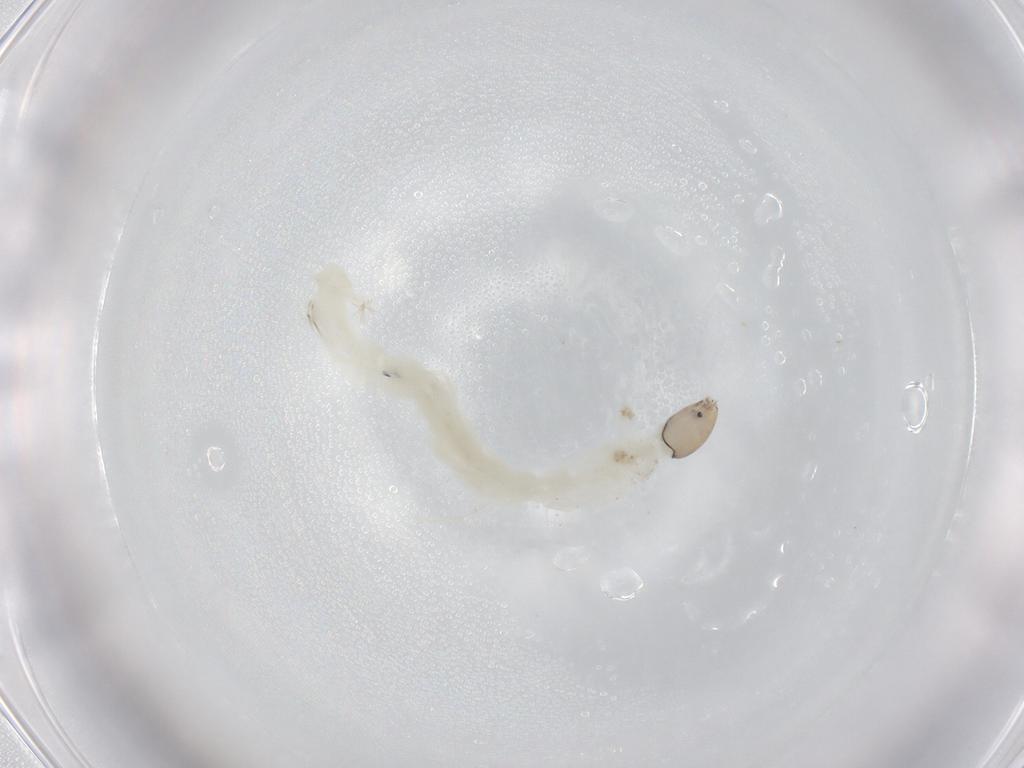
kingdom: Animalia
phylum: Arthropoda
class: Insecta
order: Diptera
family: Chironomidae
